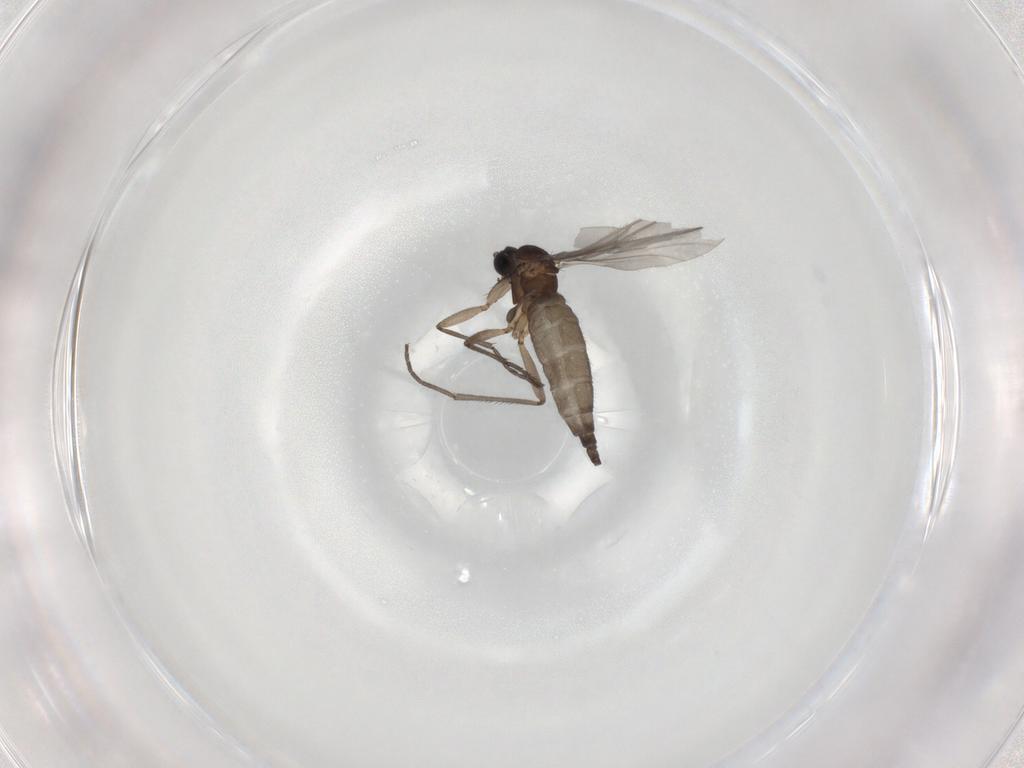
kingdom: Animalia
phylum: Arthropoda
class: Insecta
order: Diptera
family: Sciaridae
